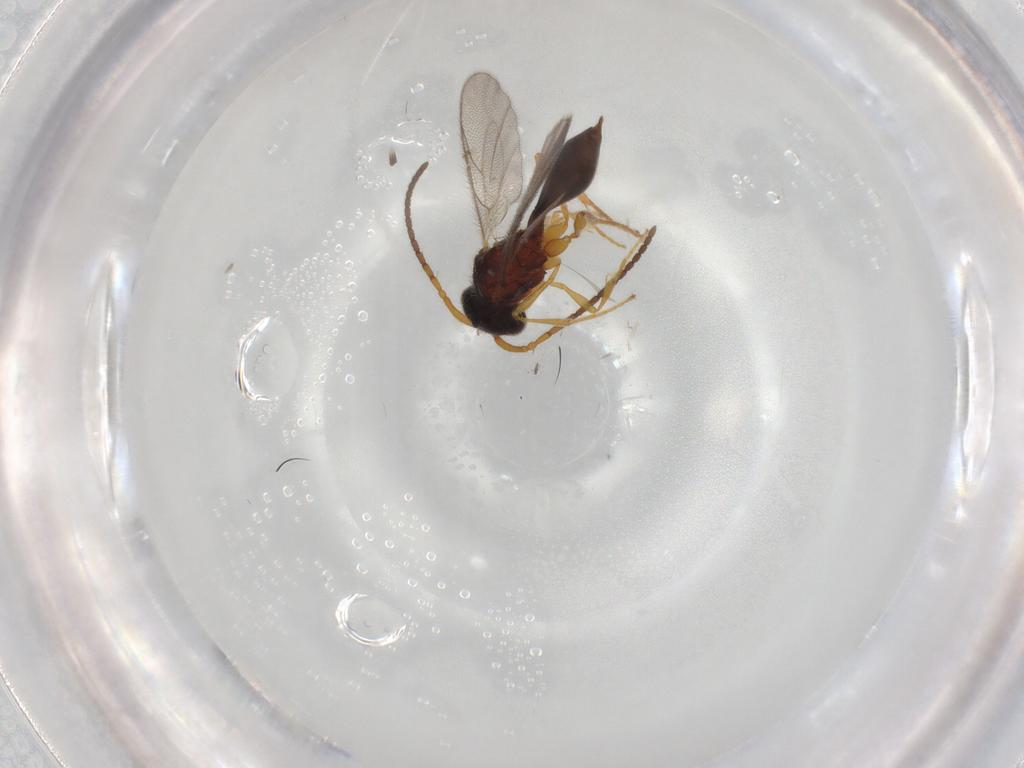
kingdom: Animalia
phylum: Arthropoda
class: Insecta
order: Hymenoptera
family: Diapriidae
